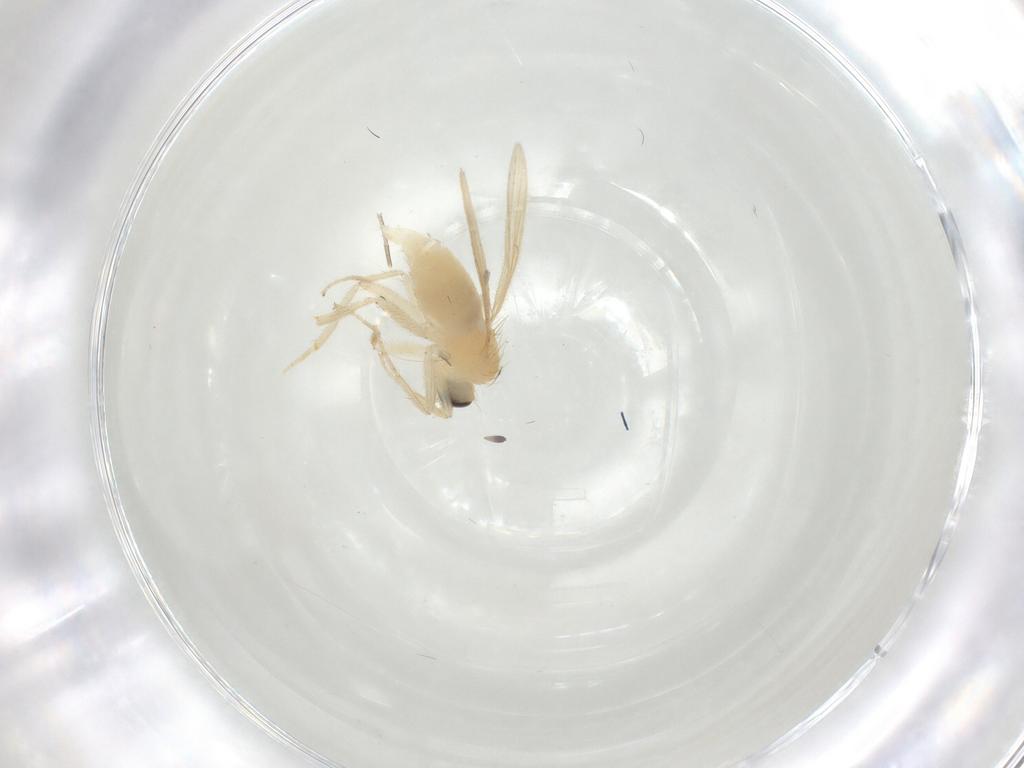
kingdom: Animalia
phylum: Arthropoda
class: Insecta
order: Diptera
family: Hybotidae
